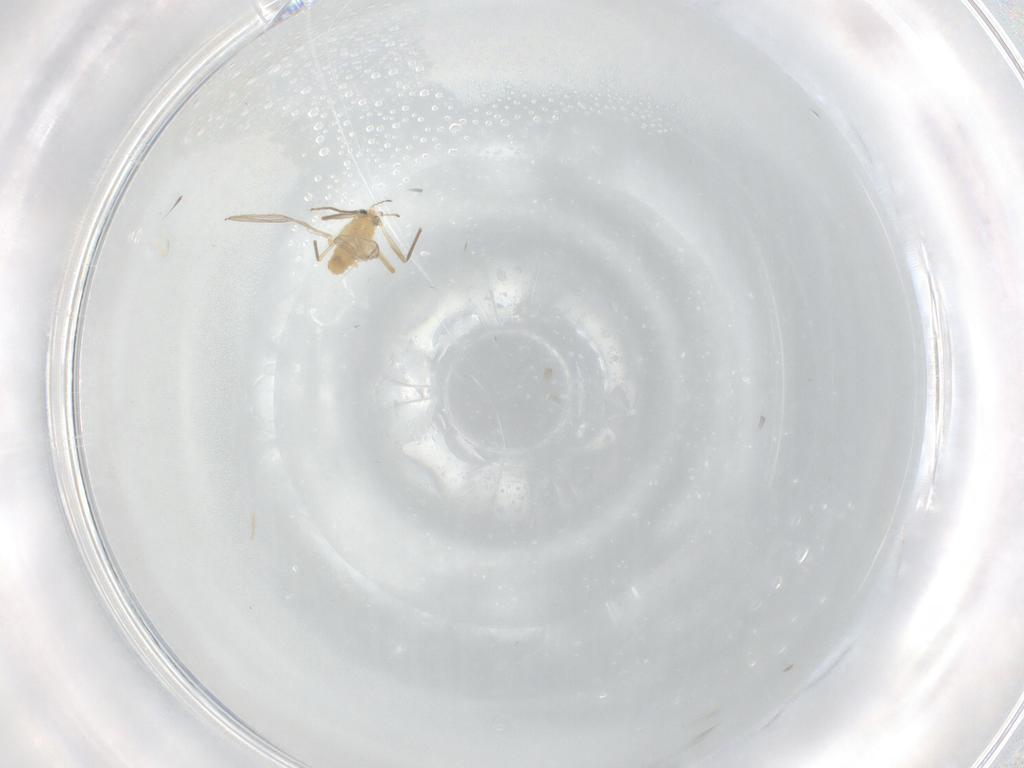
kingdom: Animalia
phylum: Arthropoda
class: Insecta
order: Diptera
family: Chironomidae
